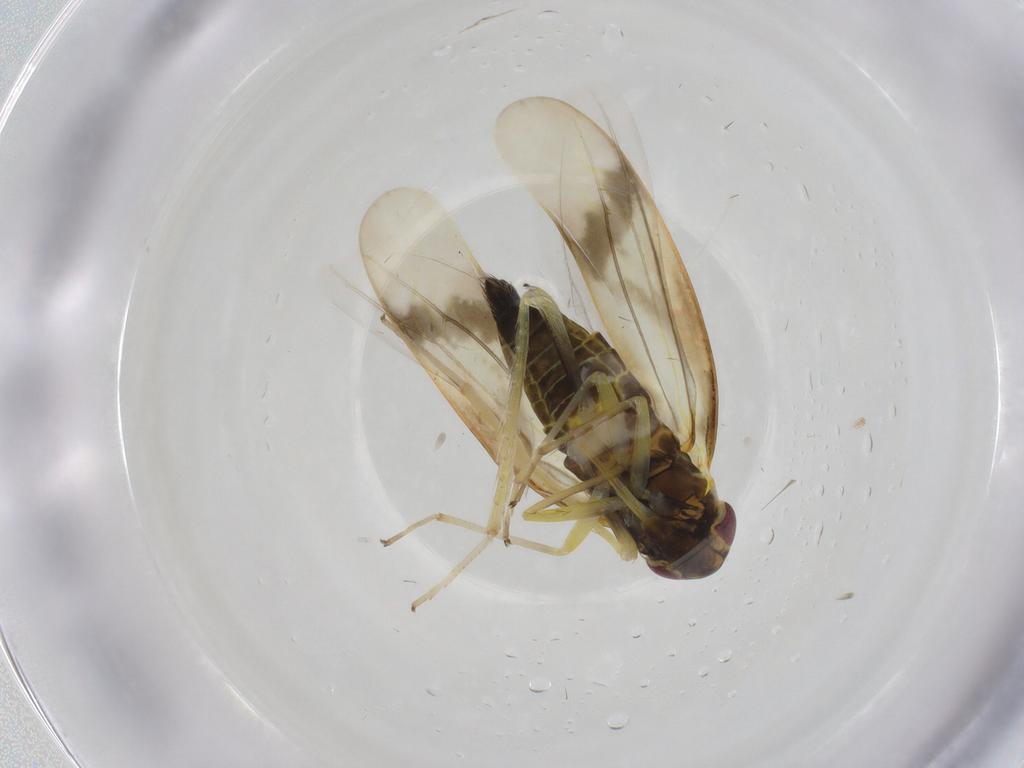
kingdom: Animalia
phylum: Arthropoda
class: Insecta
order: Hemiptera
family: Cicadellidae
